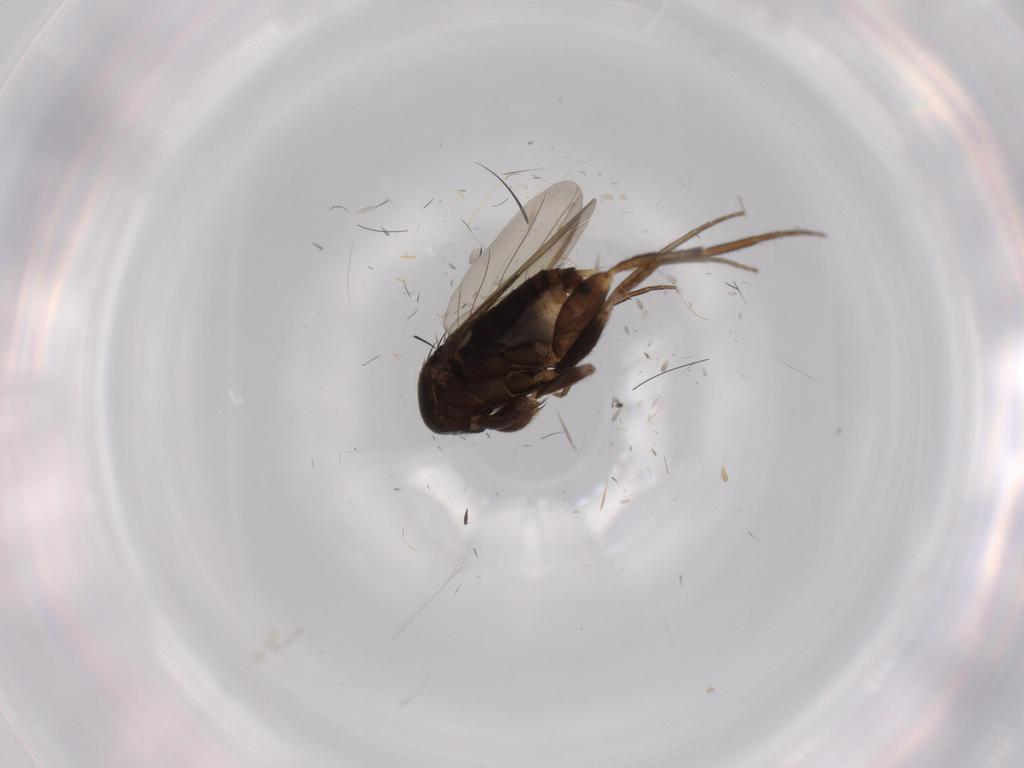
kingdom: Animalia
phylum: Arthropoda
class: Insecta
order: Diptera
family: Phoridae
